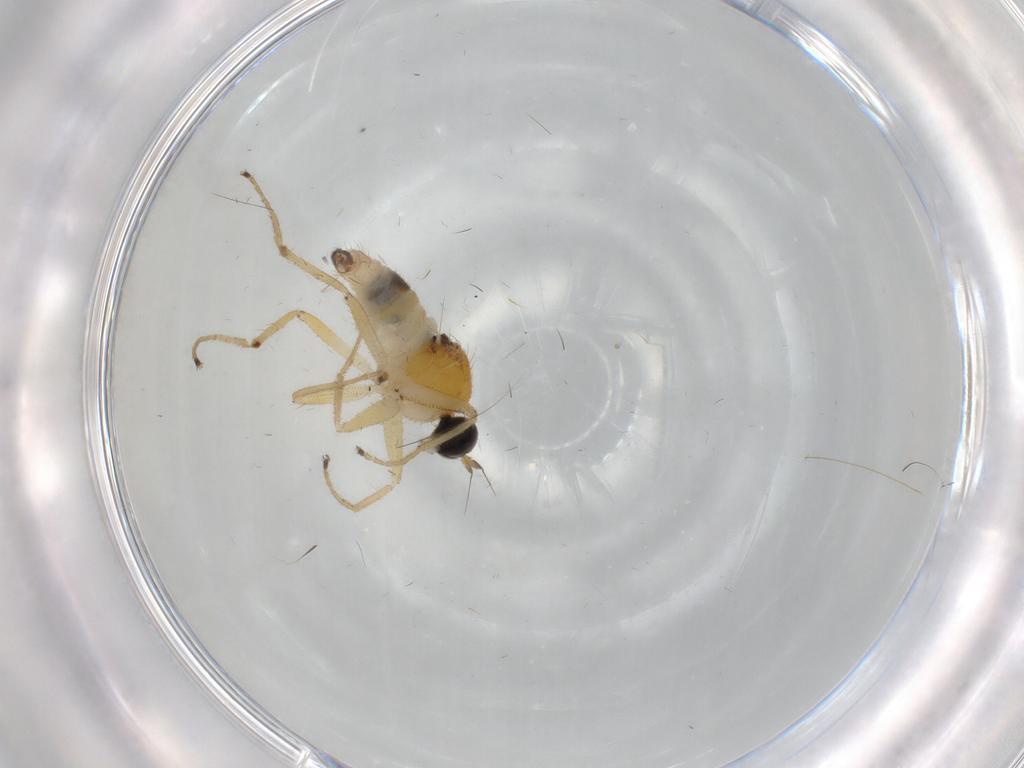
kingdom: Animalia
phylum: Arthropoda
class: Insecta
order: Diptera
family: Hybotidae
